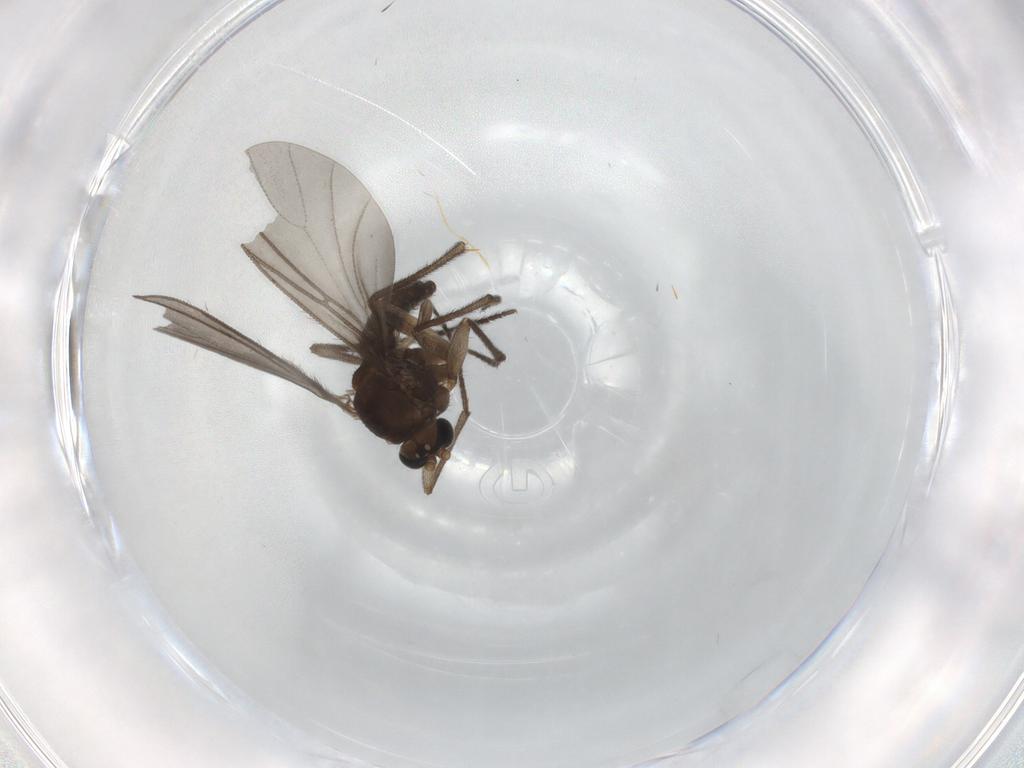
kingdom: Animalia
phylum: Arthropoda
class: Insecta
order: Diptera
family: Sciaridae
